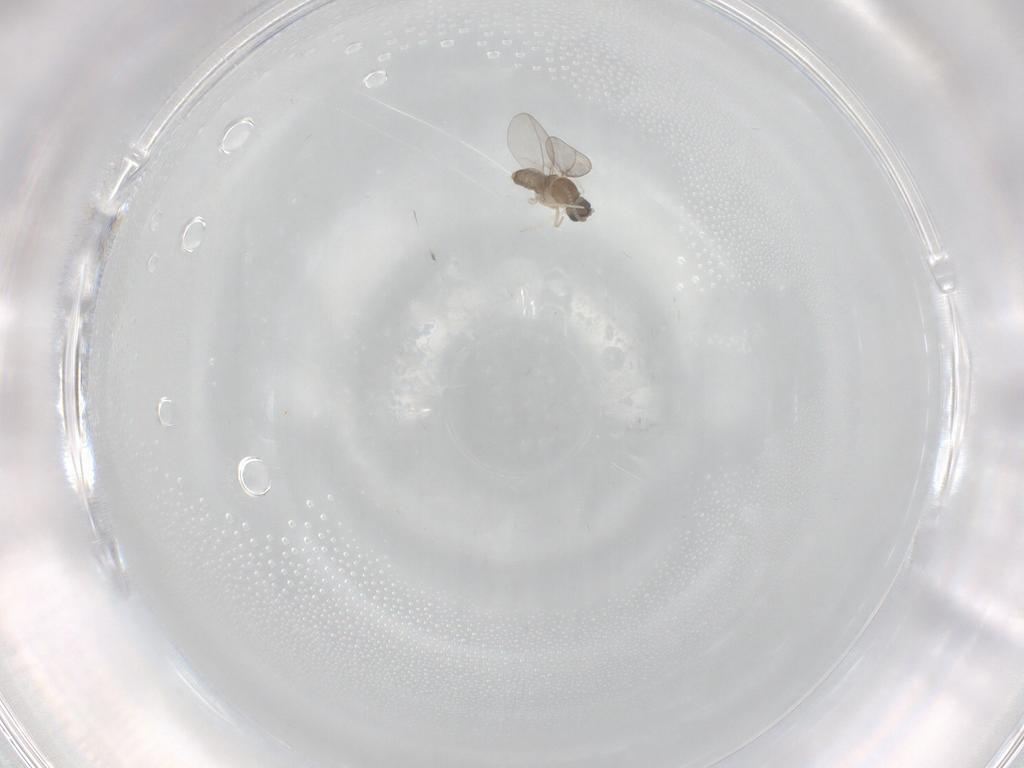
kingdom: Animalia
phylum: Arthropoda
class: Insecta
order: Diptera
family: Cecidomyiidae
